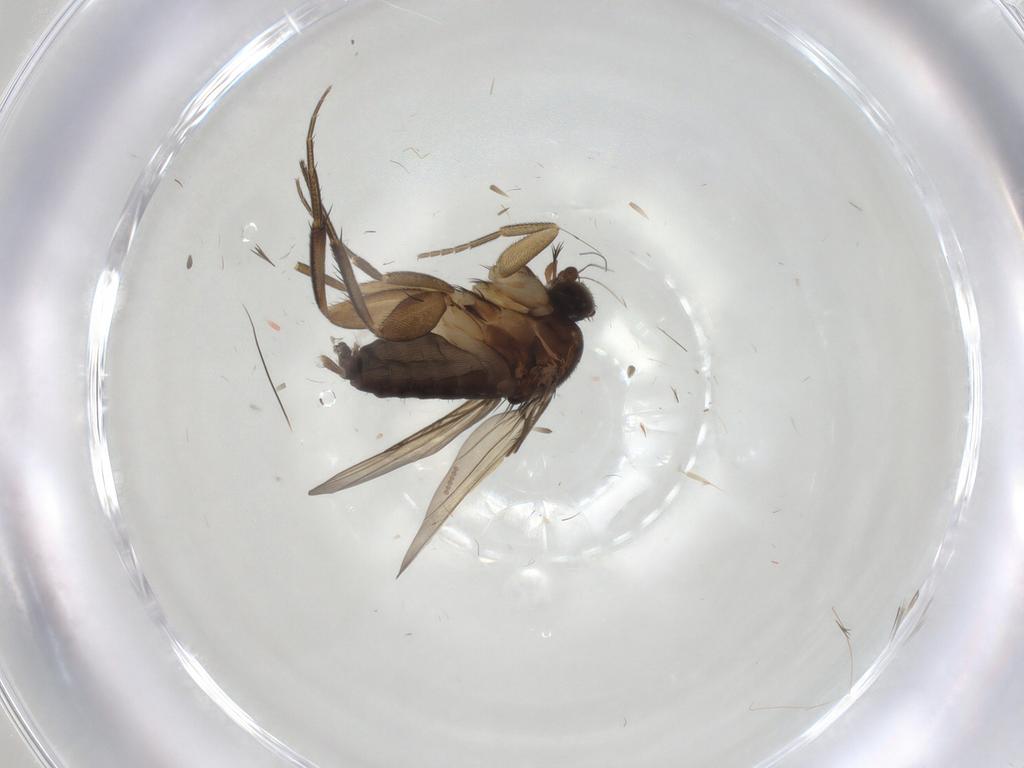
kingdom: Animalia
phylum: Arthropoda
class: Insecta
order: Diptera
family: Phoridae
